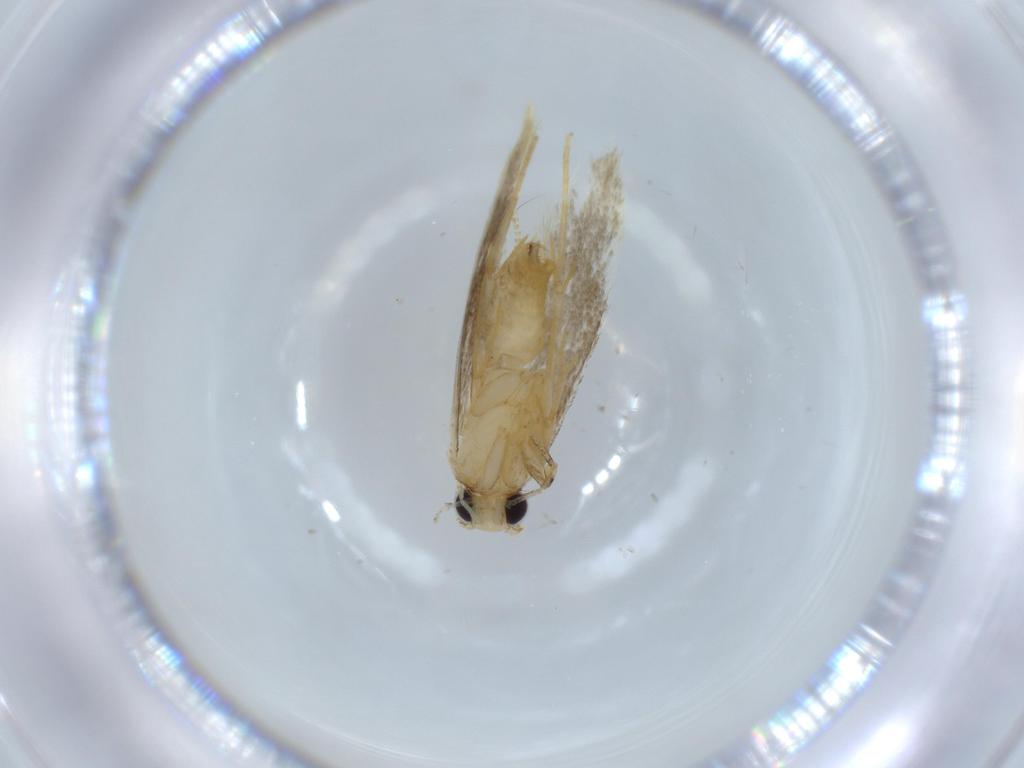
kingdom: Animalia
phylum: Arthropoda
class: Insecta
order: Lepidoptera
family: Tineidae
